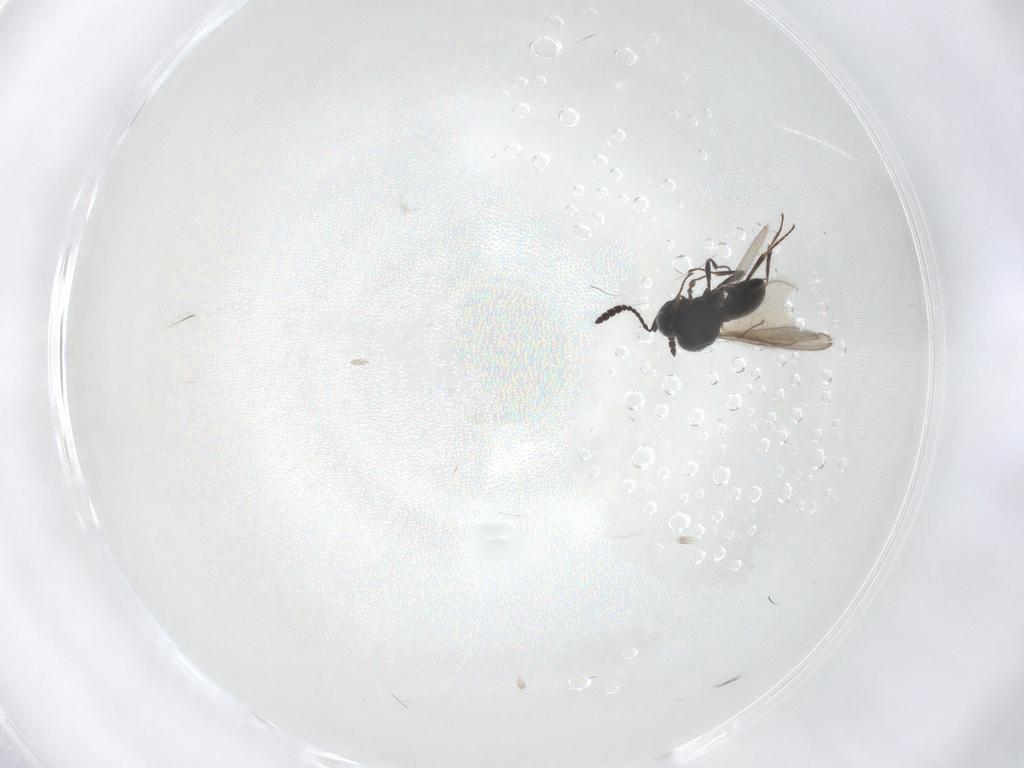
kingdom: Animalia
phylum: Arthropoda
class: Insecta
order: Hymenoptera
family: Scelionidae
